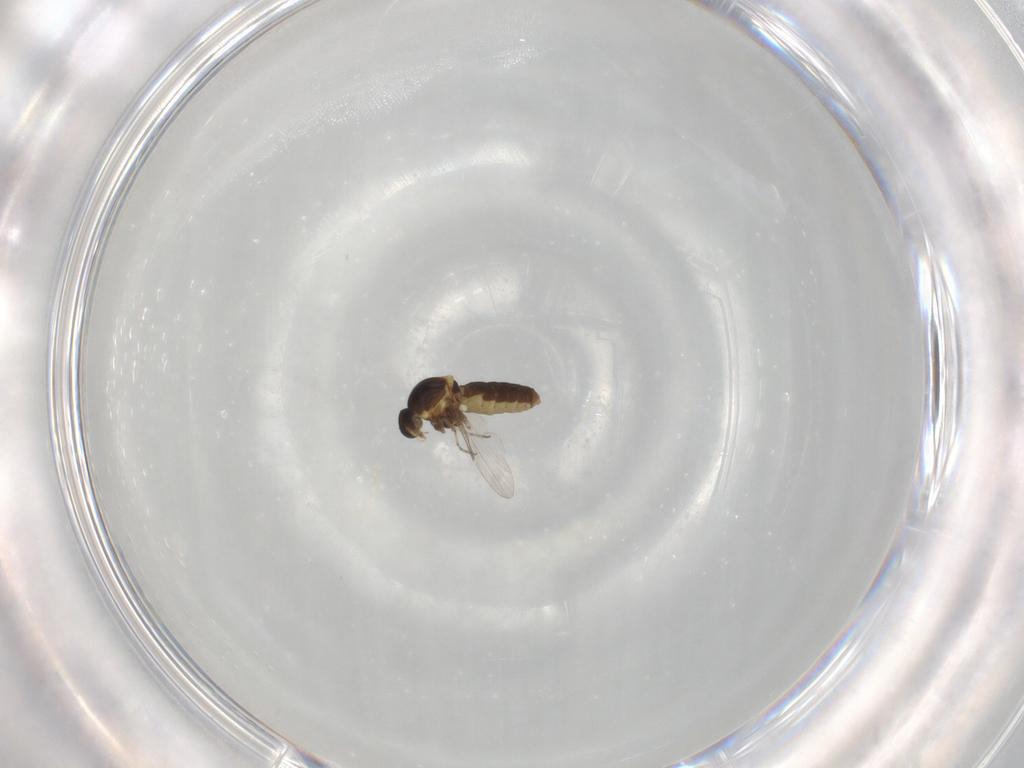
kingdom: Animalia
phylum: Arthropoda
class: Insecta
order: Diptera
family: Ceratopogonidae
